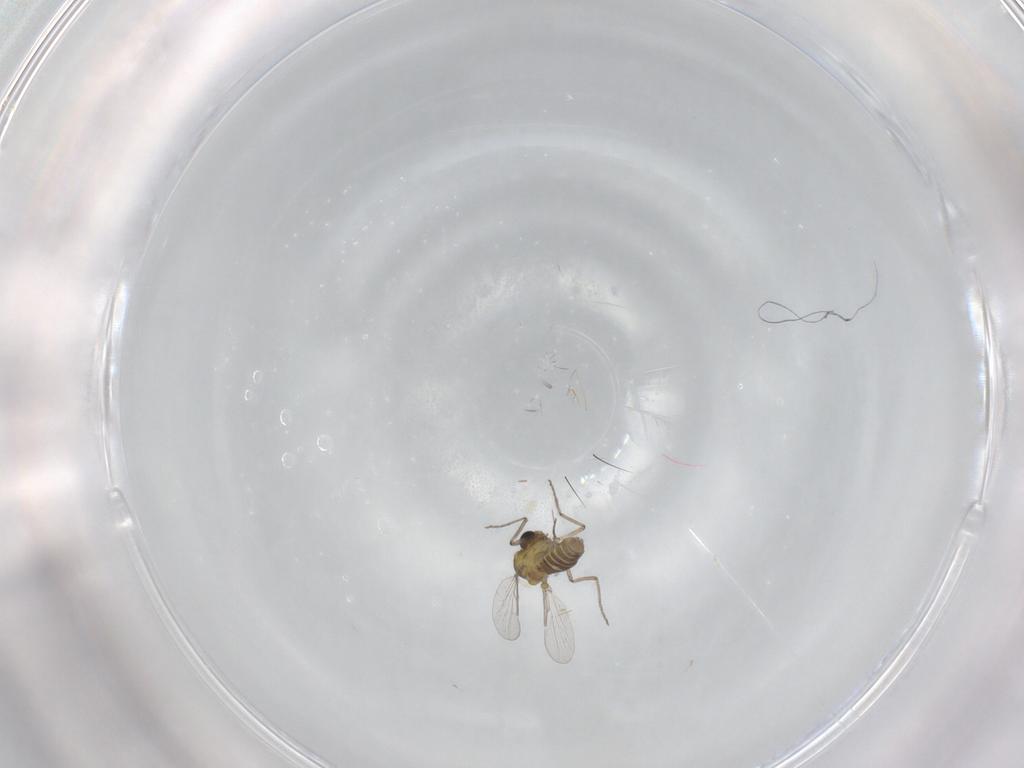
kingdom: Animalia
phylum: Arthropoda
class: Insecta
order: Diptera
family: Ceratopogonidae
